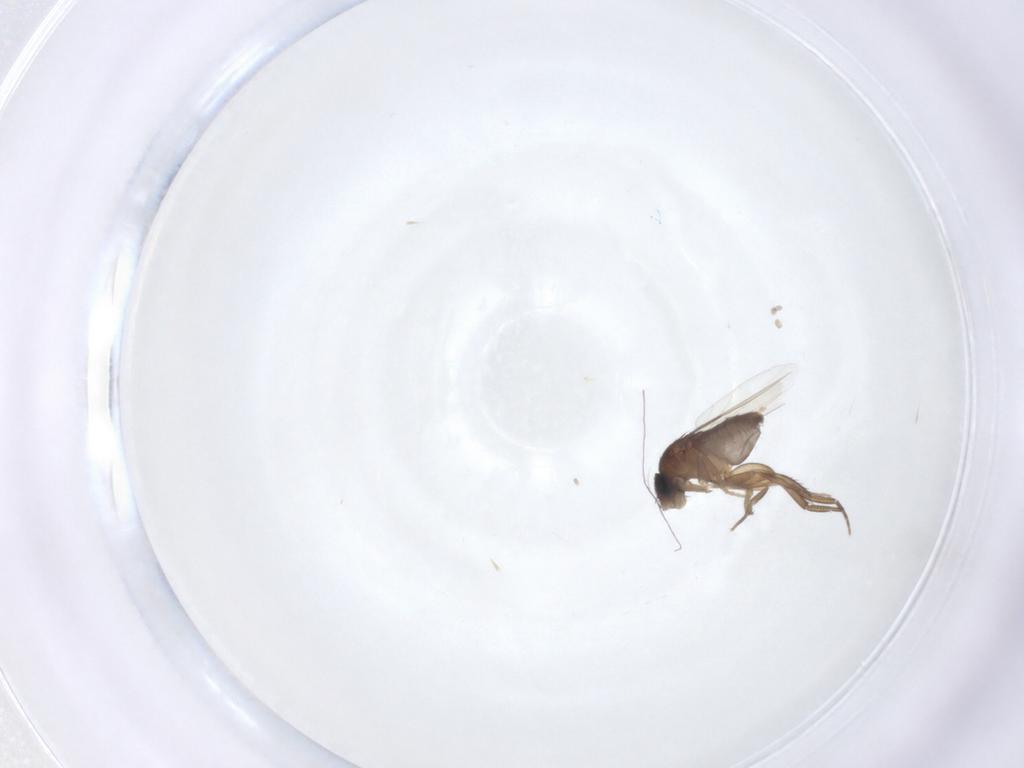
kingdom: Animalia
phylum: Arthropoda
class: Insecta
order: Diptera
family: Phoridae
